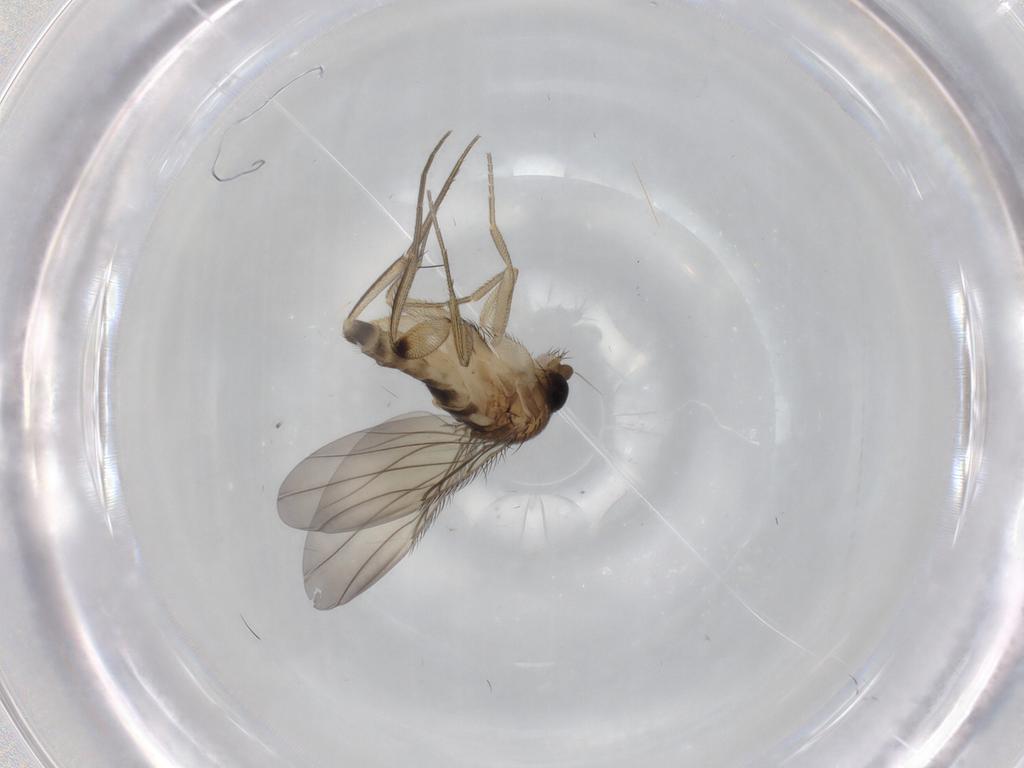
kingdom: Animalia
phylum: Arthropoda
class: Insecta
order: Diptera
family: Phoridae
